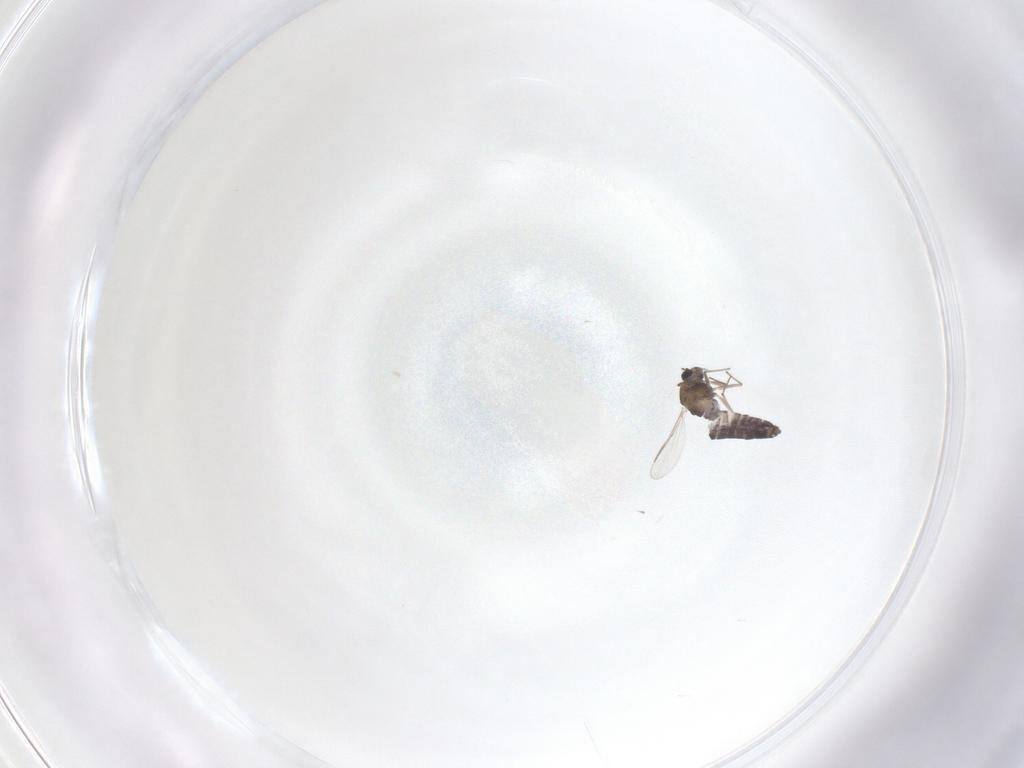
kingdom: Animalia
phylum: Arthropoda
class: Insecta
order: Diptera
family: Chironomidae
